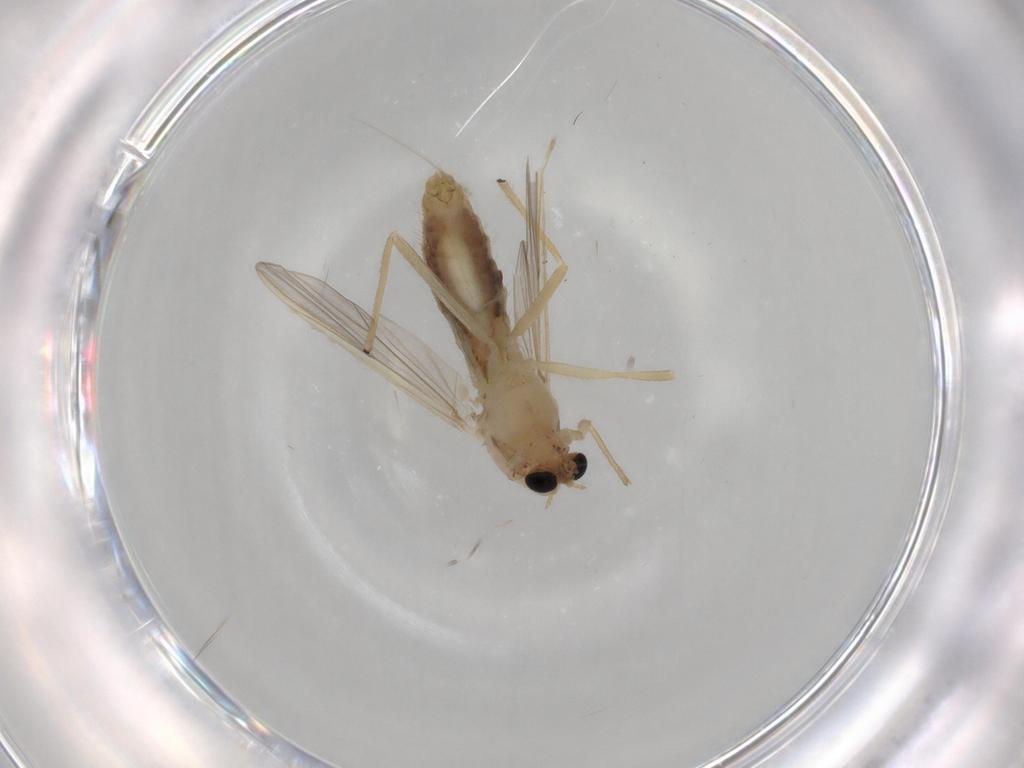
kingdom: Animalia
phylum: Arthropoda
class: Insecta
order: Diptera
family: Chironomidae
